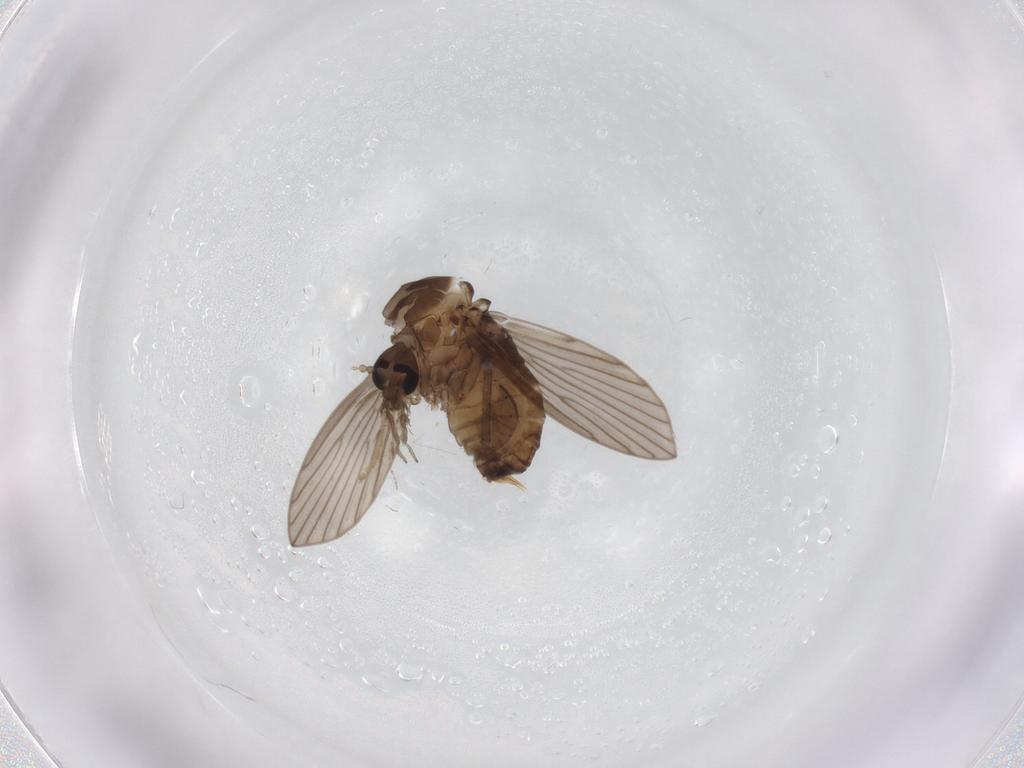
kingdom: Animalia
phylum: Arthropoda
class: Insecta
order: Diptera
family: Psychodidae
